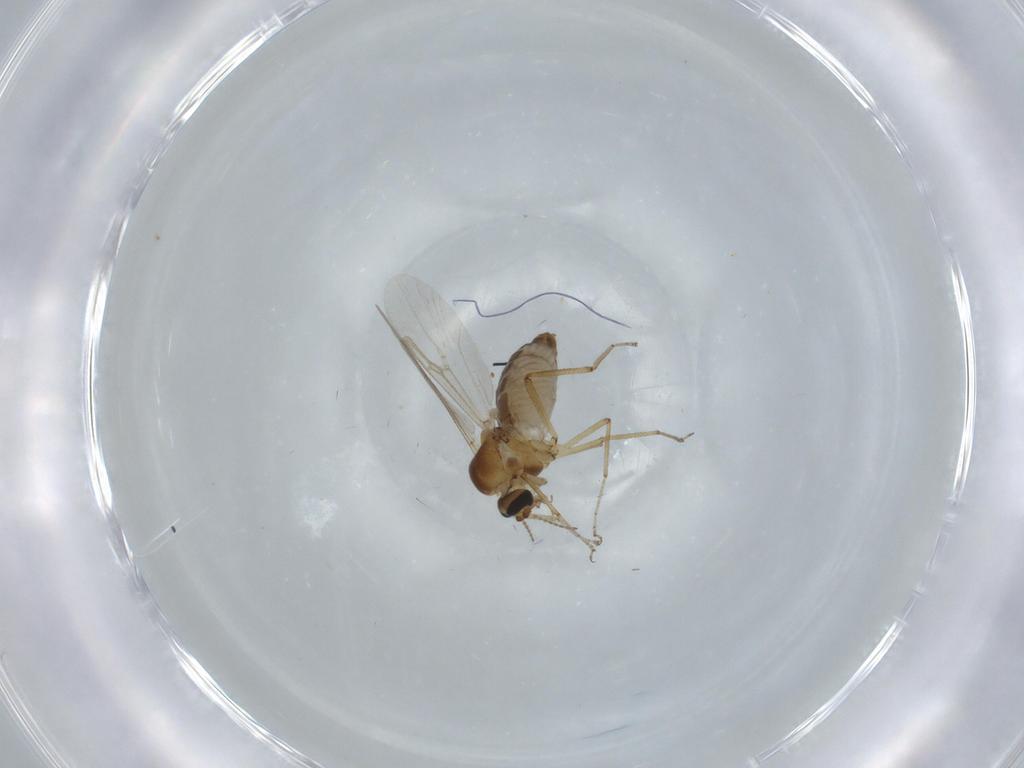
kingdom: Animalia
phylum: Arthropoda
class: Insecta
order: Diptera
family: Ceratopogonidae
